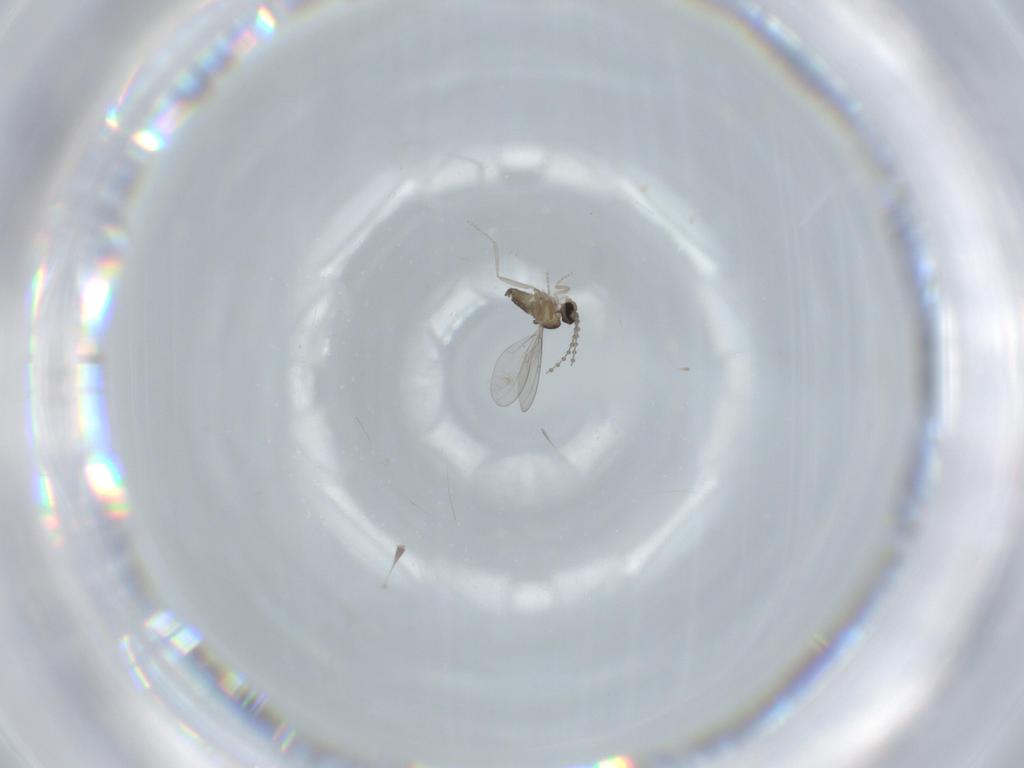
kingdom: Animalia
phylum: Arthropoda
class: Insecta
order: Diptera
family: Cecidomyiidae
